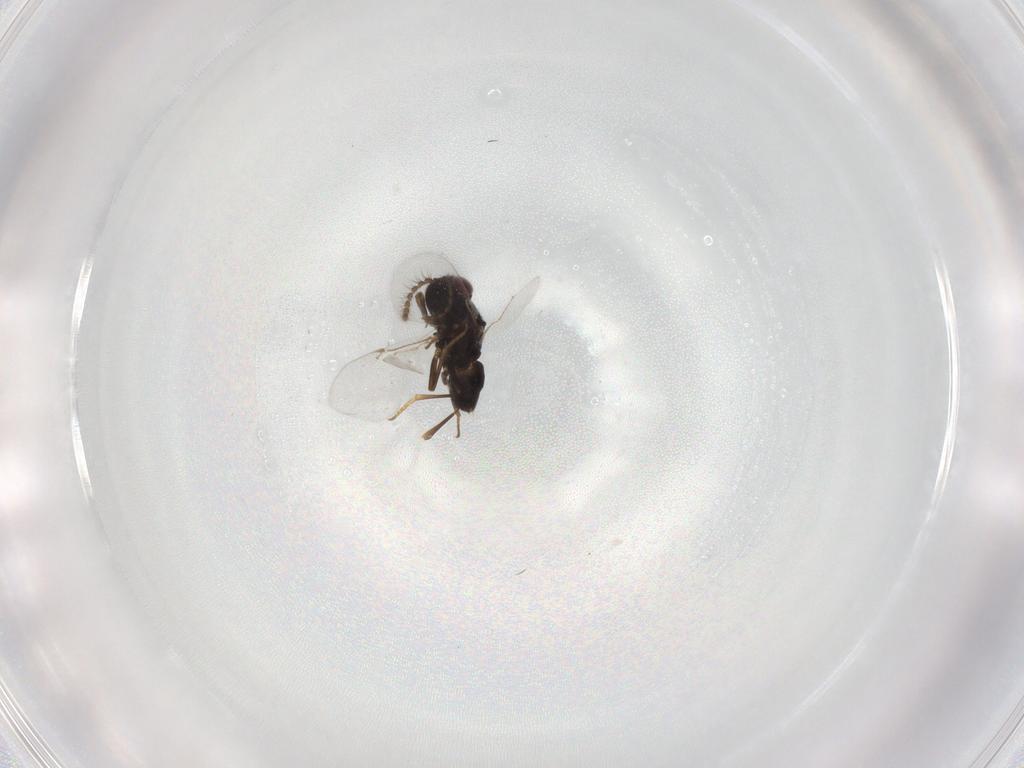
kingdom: Animalia
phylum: Arthropoda
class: Insecta
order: Hymenoptera
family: Encyrtidae
